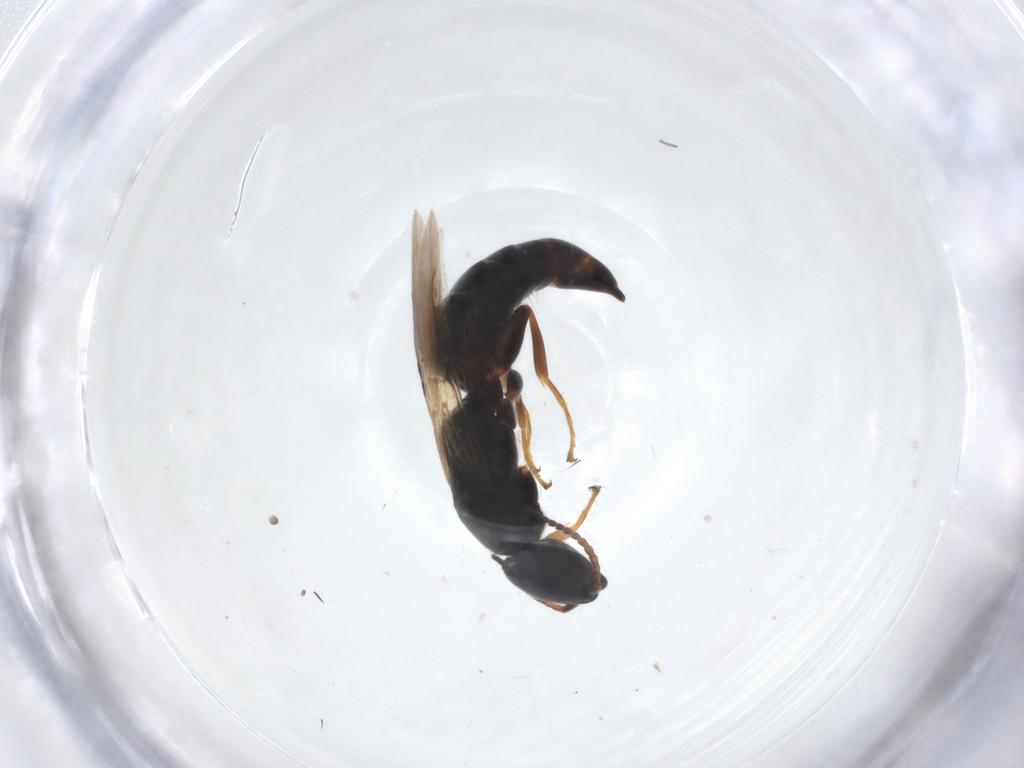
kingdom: Animalia
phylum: Arthropoda
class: Insecta
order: Hymenoptera
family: Bethylidae
